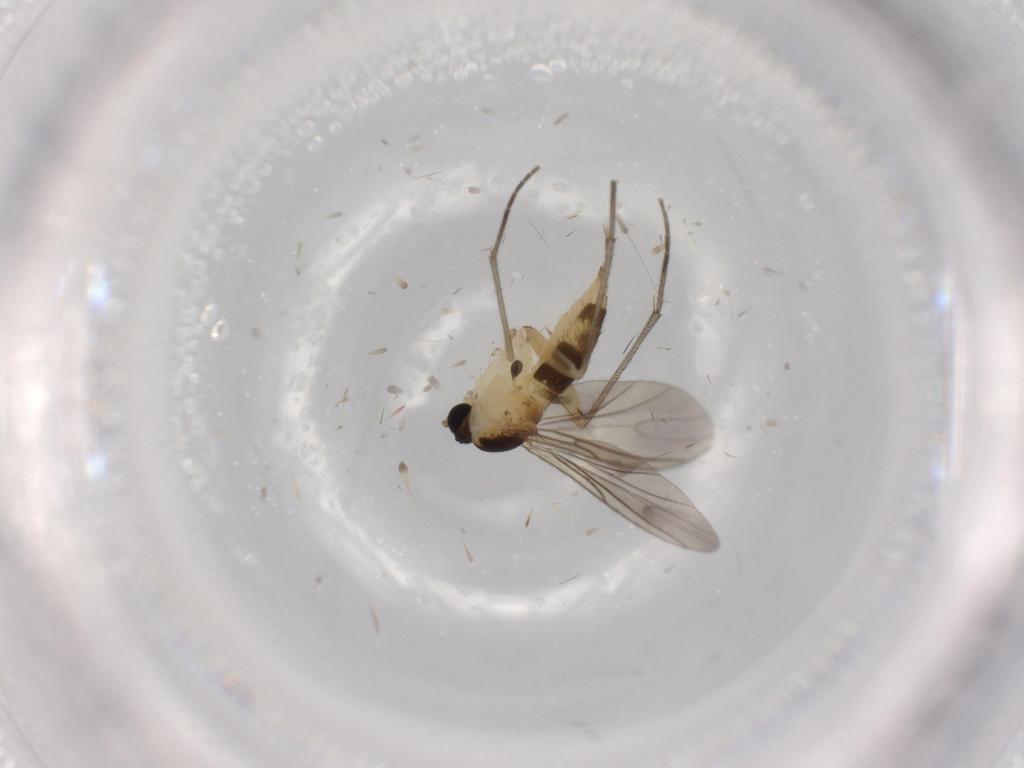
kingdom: Animalia
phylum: Arthropoda
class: Insecta
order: Diptera
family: Sciaridae
